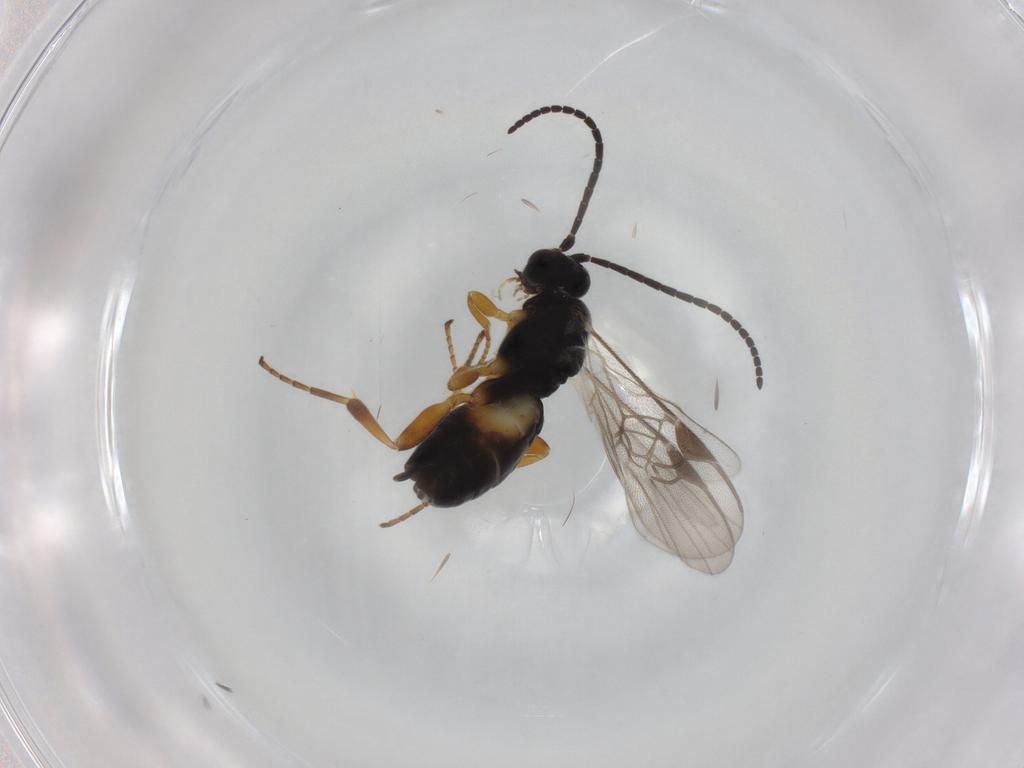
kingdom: Animalia
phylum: Arthropoda
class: Insecta
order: Hymenoptera
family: Braconidae
